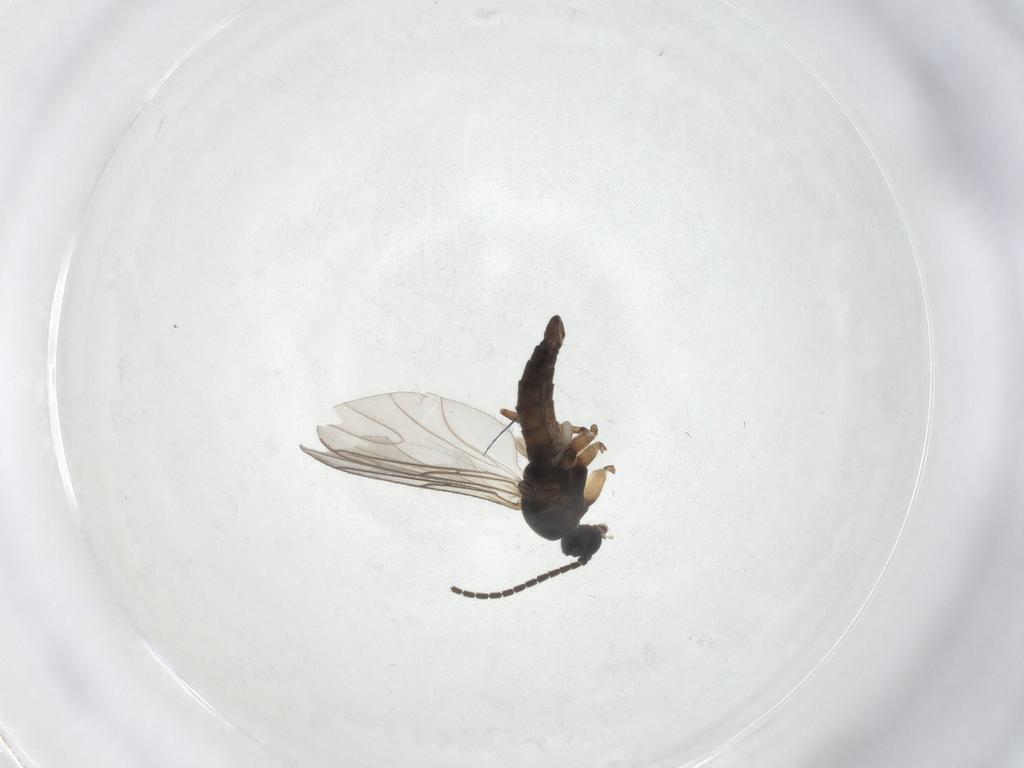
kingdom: Animalia
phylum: Arthropoda
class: Insecta
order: Diptera
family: Sciaridae
